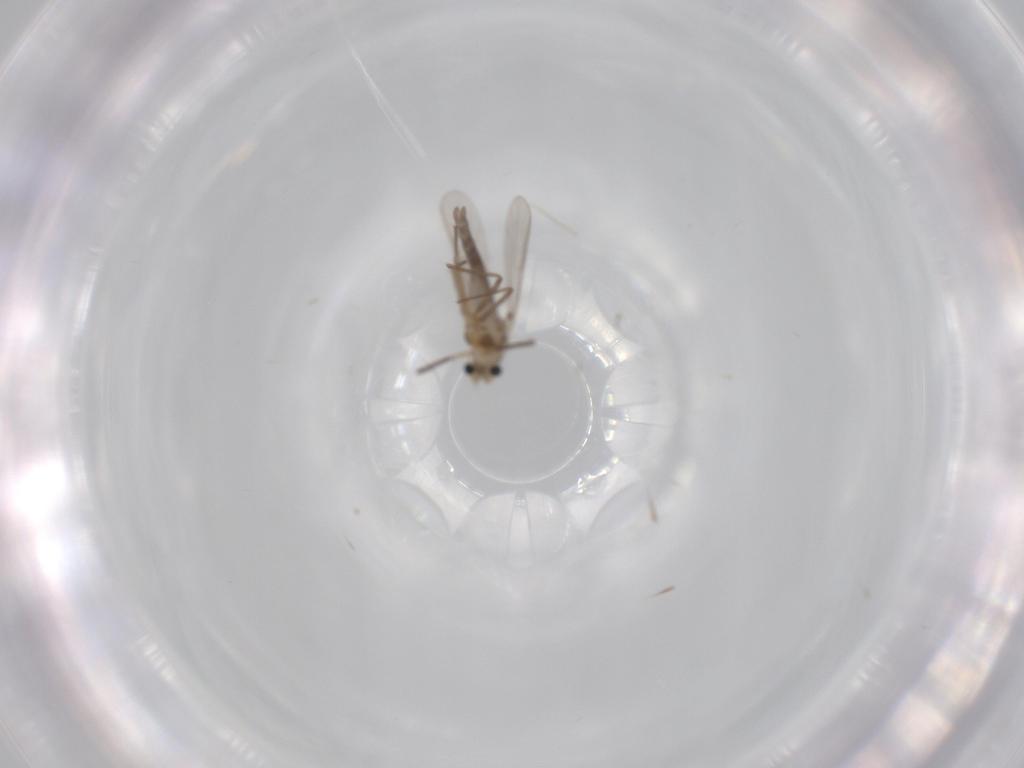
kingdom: Animalia
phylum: Arthropoda
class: Insecta
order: Diptera
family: Chironomidae
